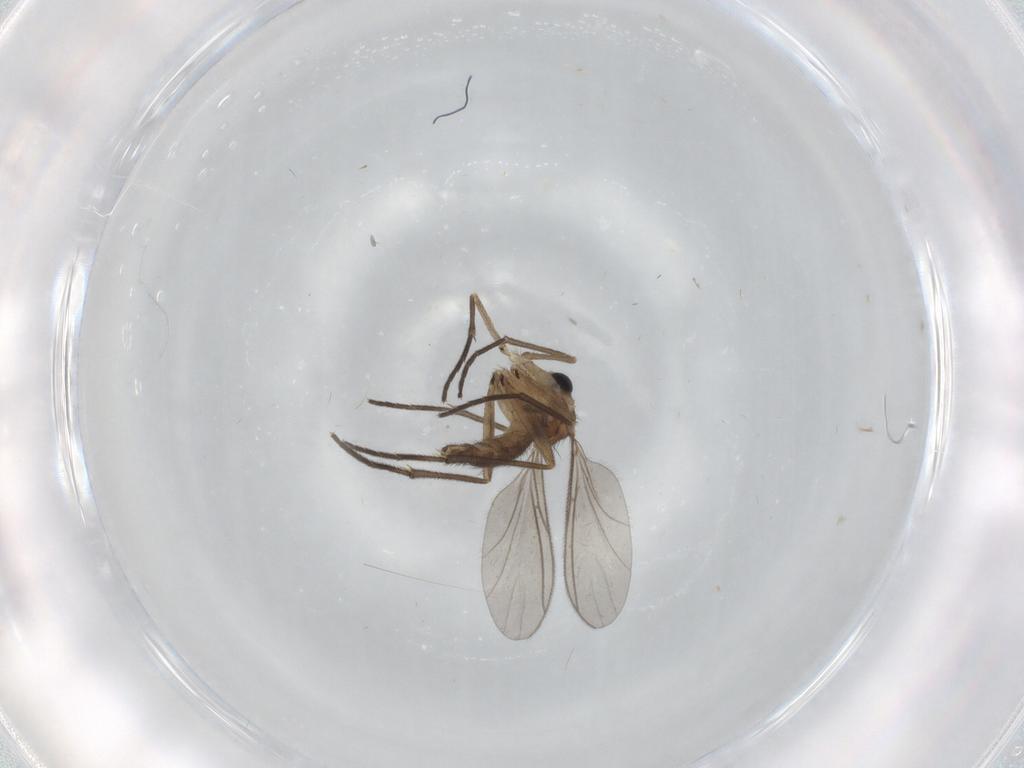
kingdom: Animalia
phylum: Arthropoda
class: Insecta
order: Diptera
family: Sciaridae
